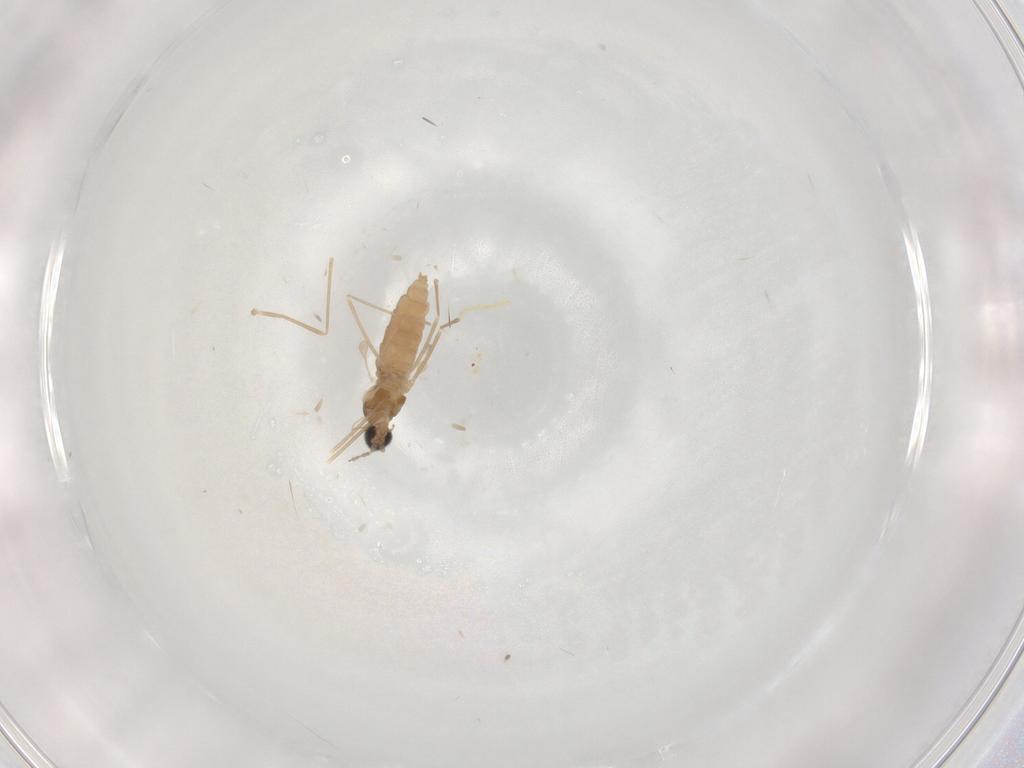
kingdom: Animalia
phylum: Arthropoda
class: Insecta
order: Diptera
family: Cecidomyiidae
